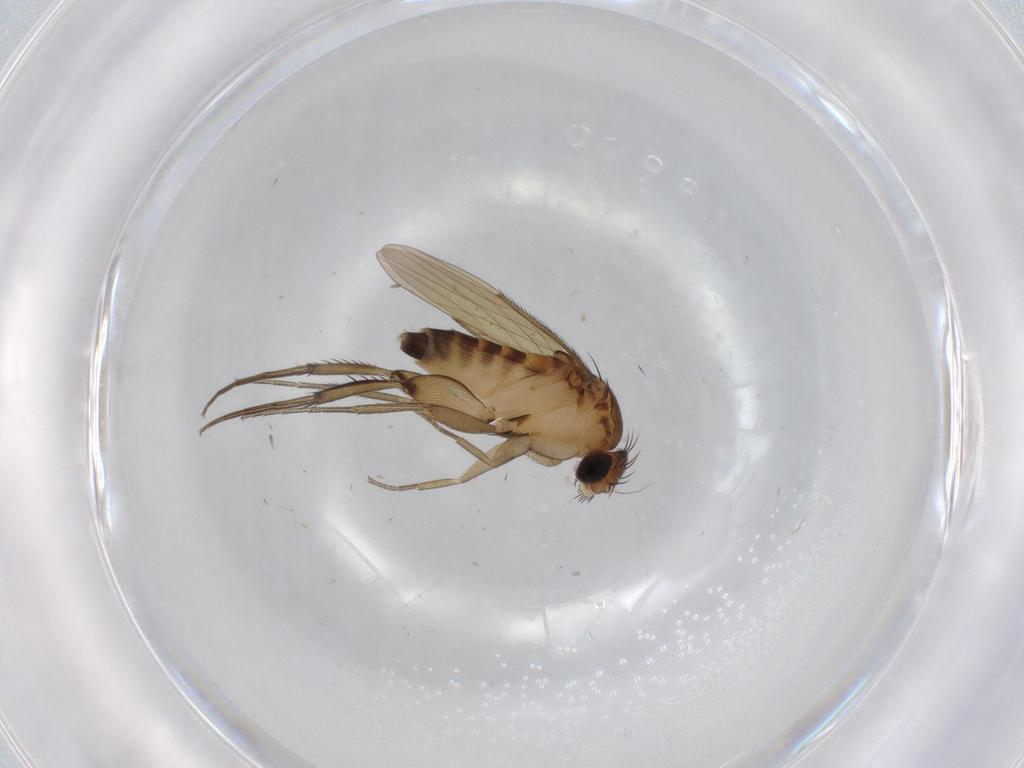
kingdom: Animalia
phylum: Arthropoda
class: Insecta
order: Diptera
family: Phoridae
